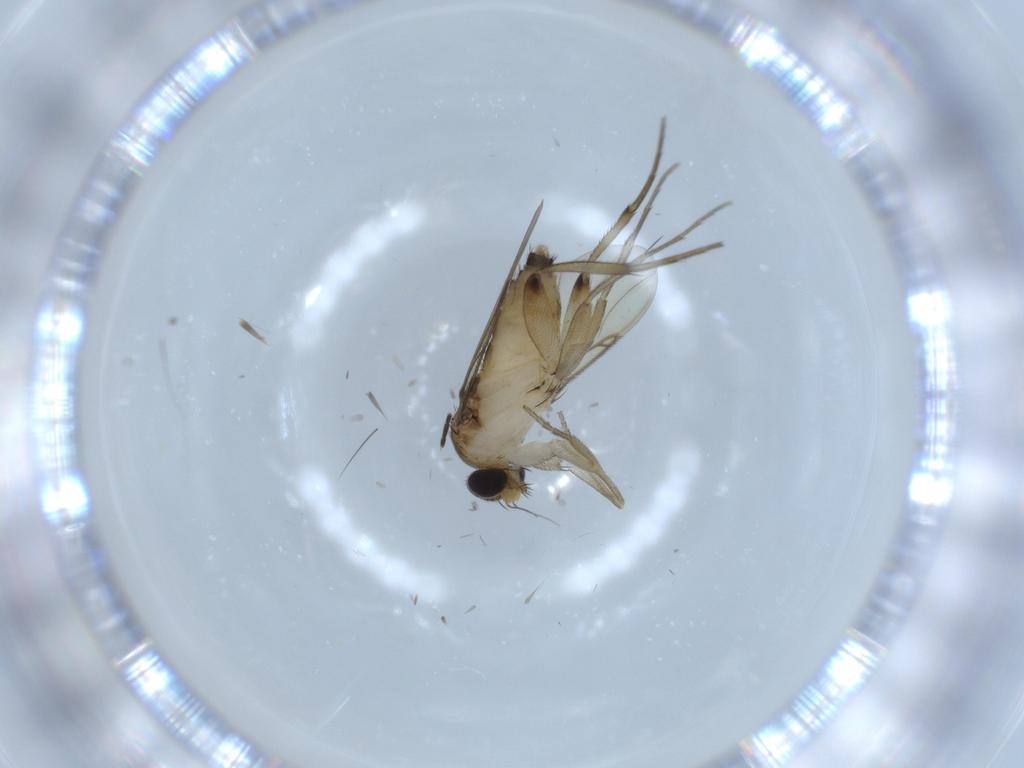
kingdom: Animalia
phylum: Arthropoda
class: Insecta
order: Diptera
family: Phoridae
